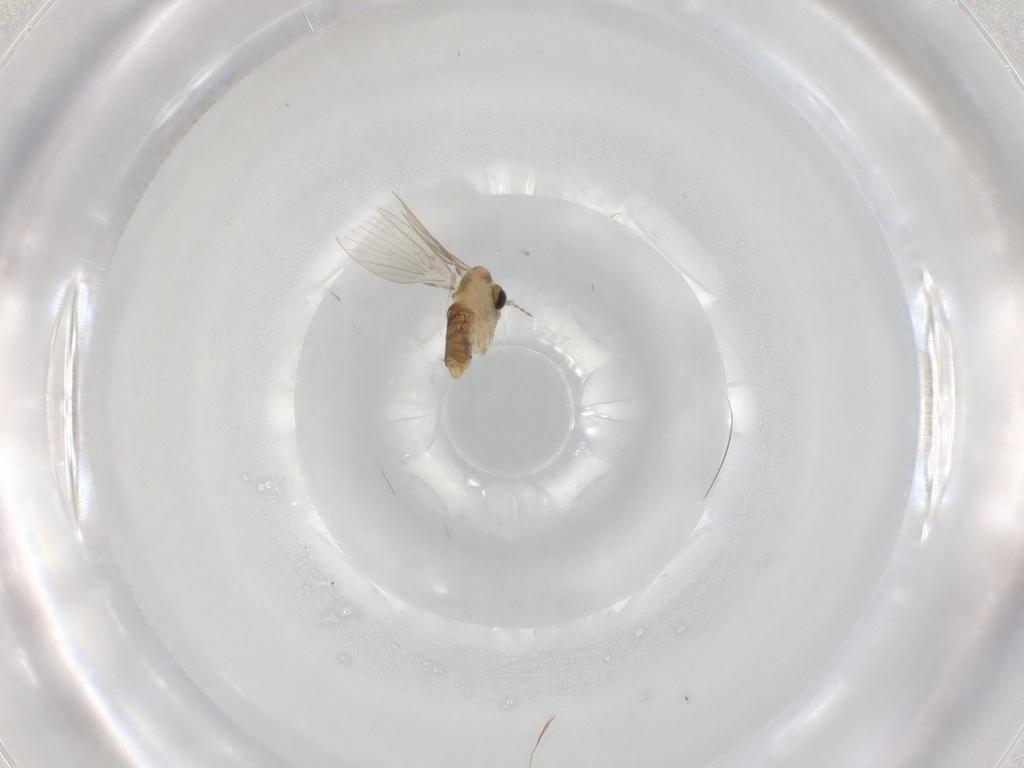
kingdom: Animalia
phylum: Arthropoda
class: Insecta
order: Diptera
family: Psychodidae
